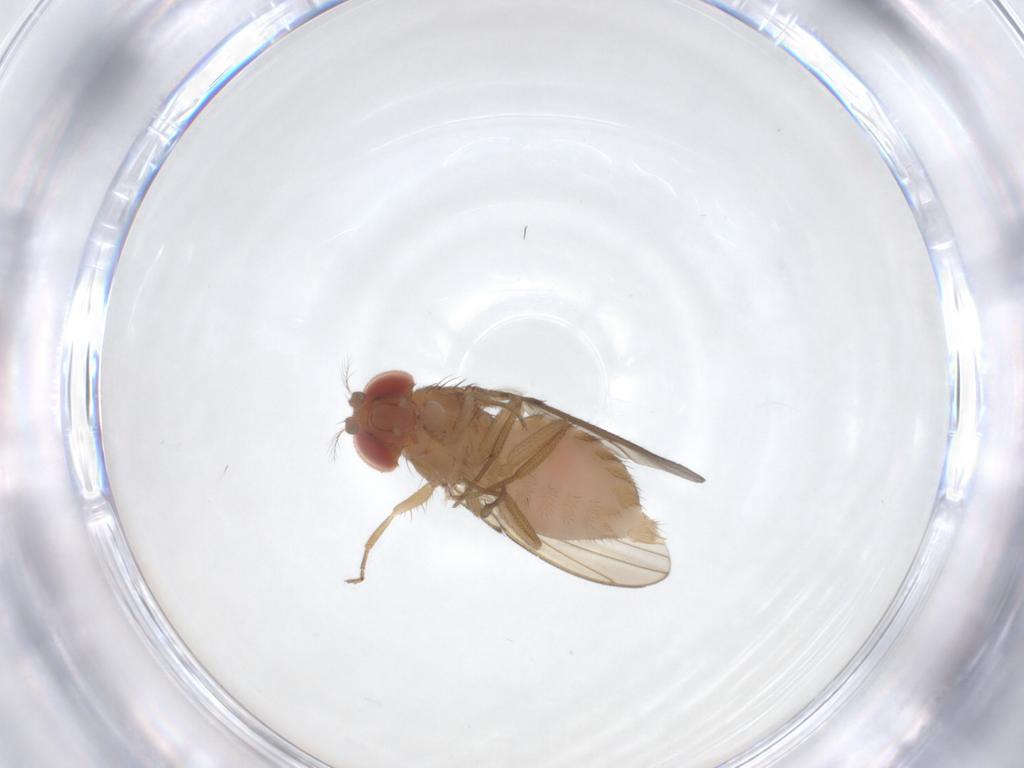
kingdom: Animalia
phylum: Arthropoda
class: Insecta
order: Diptera
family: Drosophilidae
